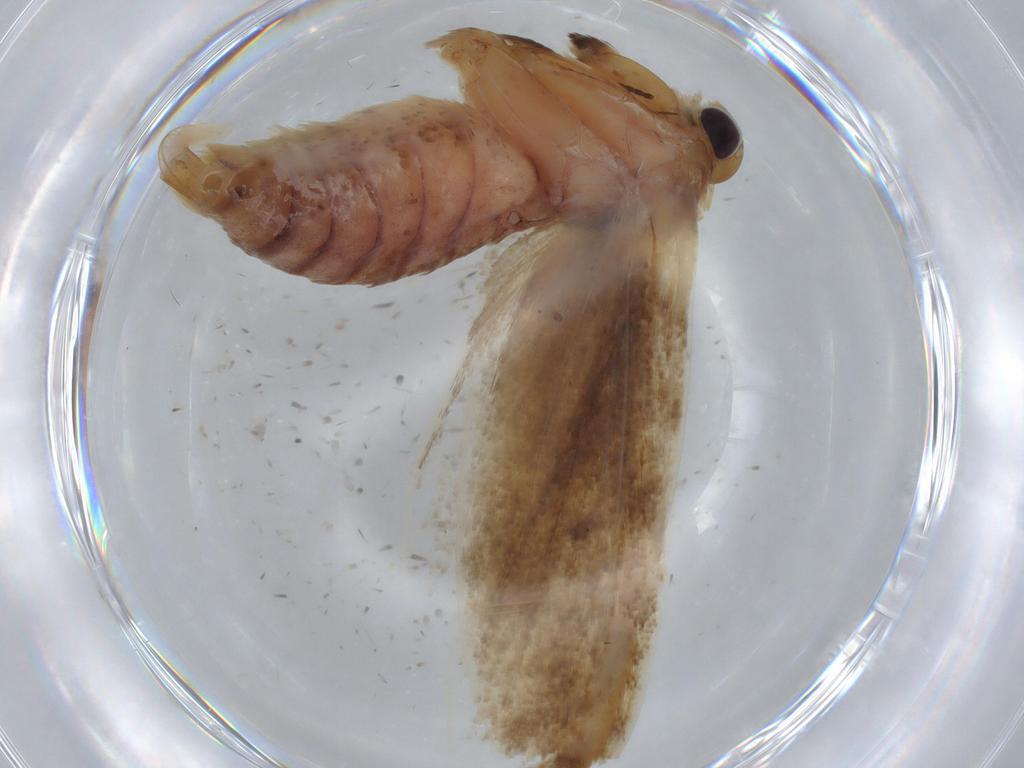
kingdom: Animalia
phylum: Arthropoda
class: Insecta
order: Lepidoptera
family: Blastobasidae
